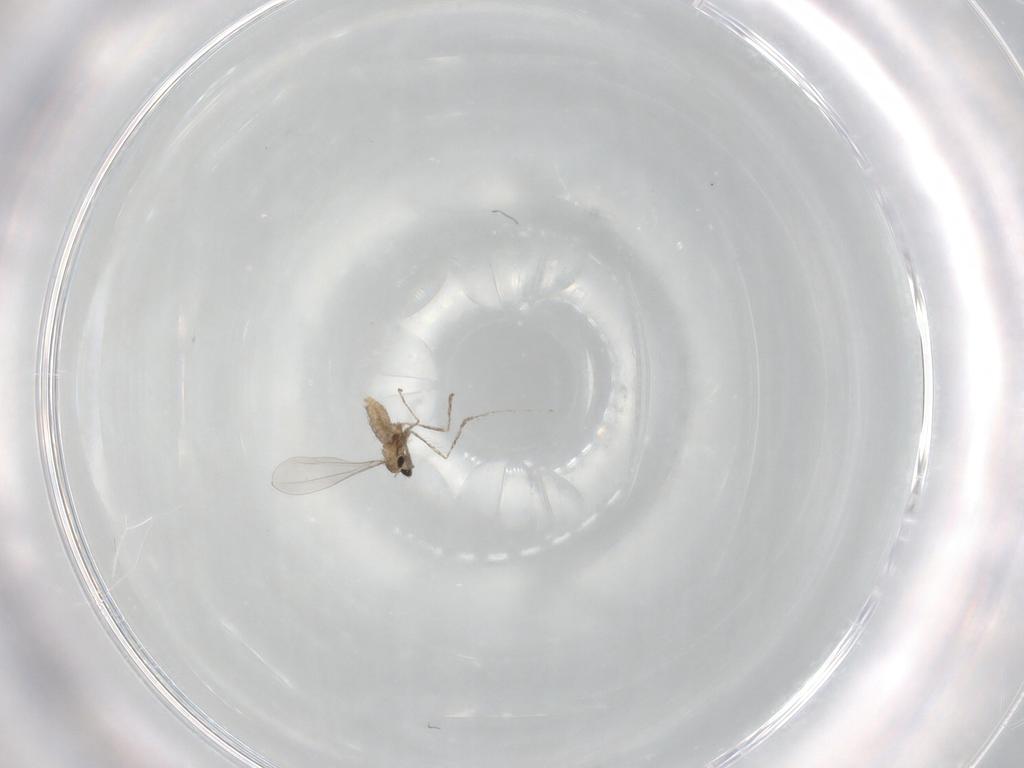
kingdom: Animalia
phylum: Arthropoda
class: Insecta
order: Diptera
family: Cecidomyiidae
